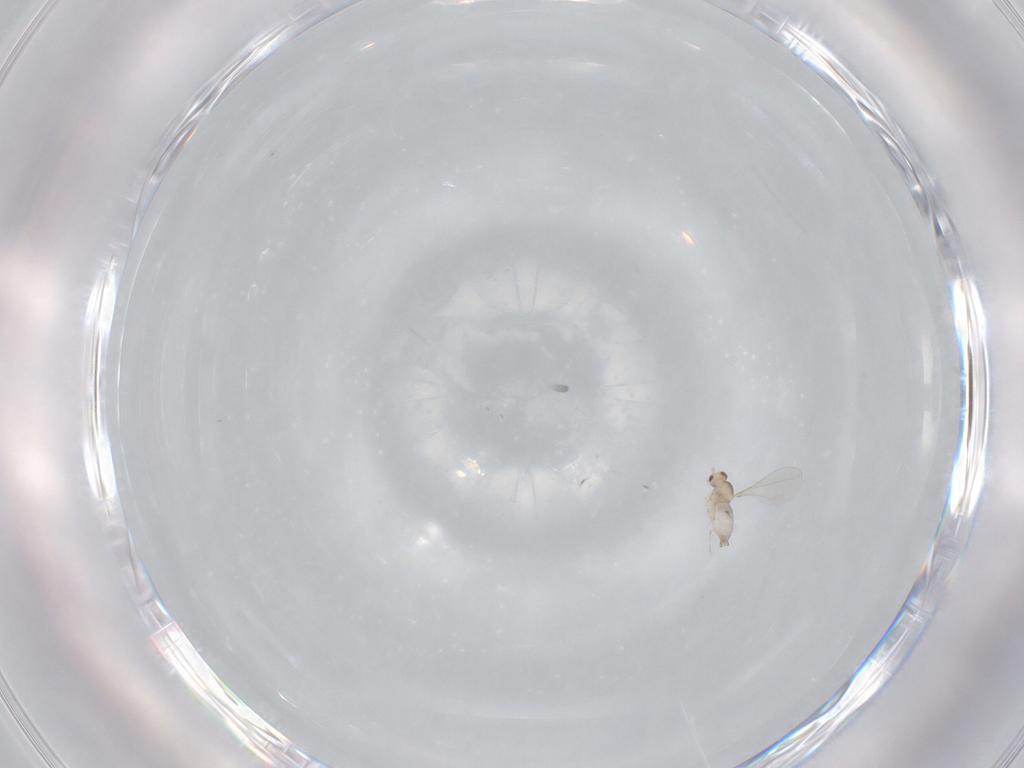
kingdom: Animalia
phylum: Arthropoda
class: Insecta
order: Diptera
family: Cecidomyiidae
